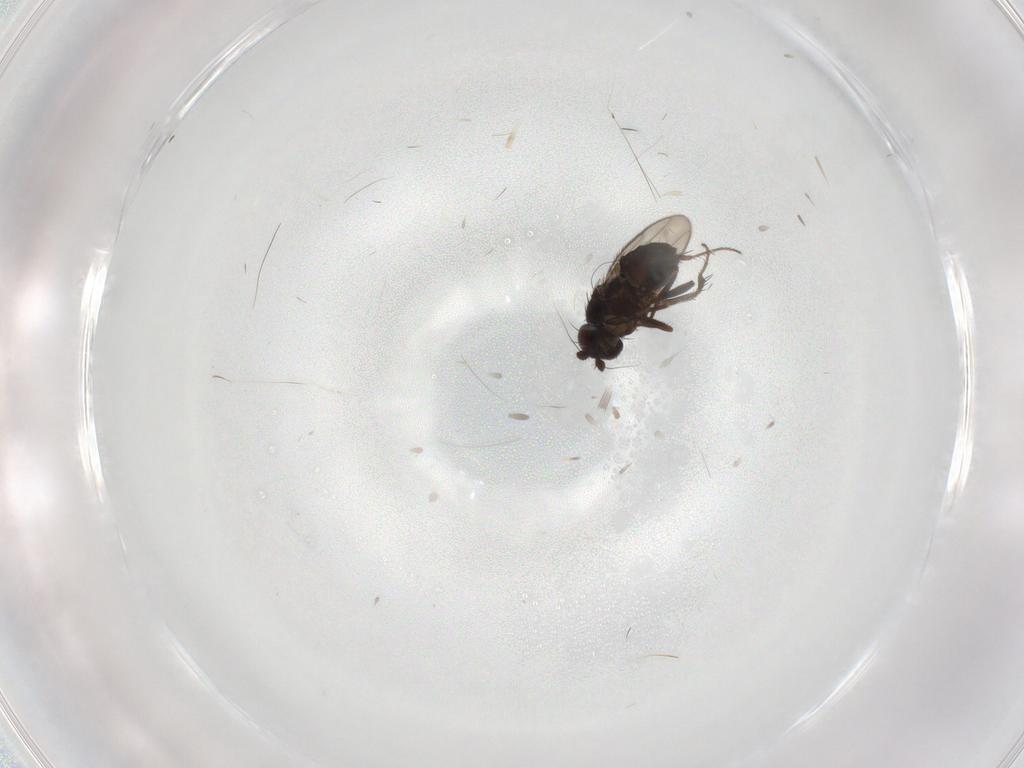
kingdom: Animalia
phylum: Arthropoda
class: Insecta
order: Diptera
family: Sphaeroceridae
